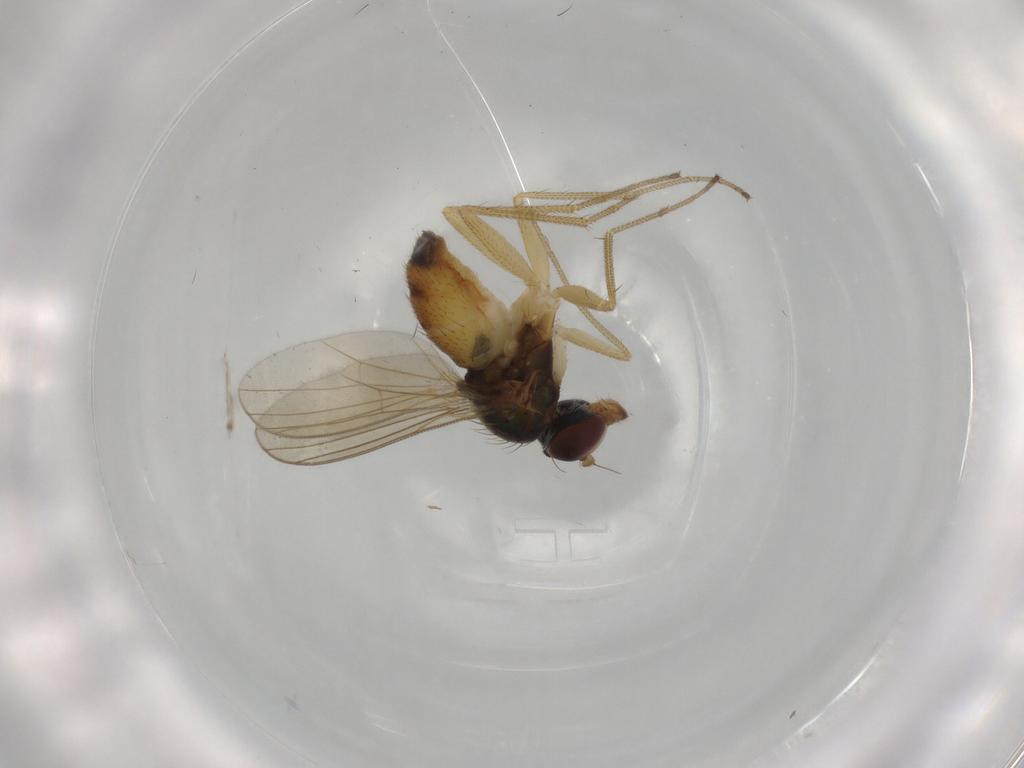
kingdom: Animalia
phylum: Arthropoda
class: Insecta
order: Diptera
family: Dolichopodidae
